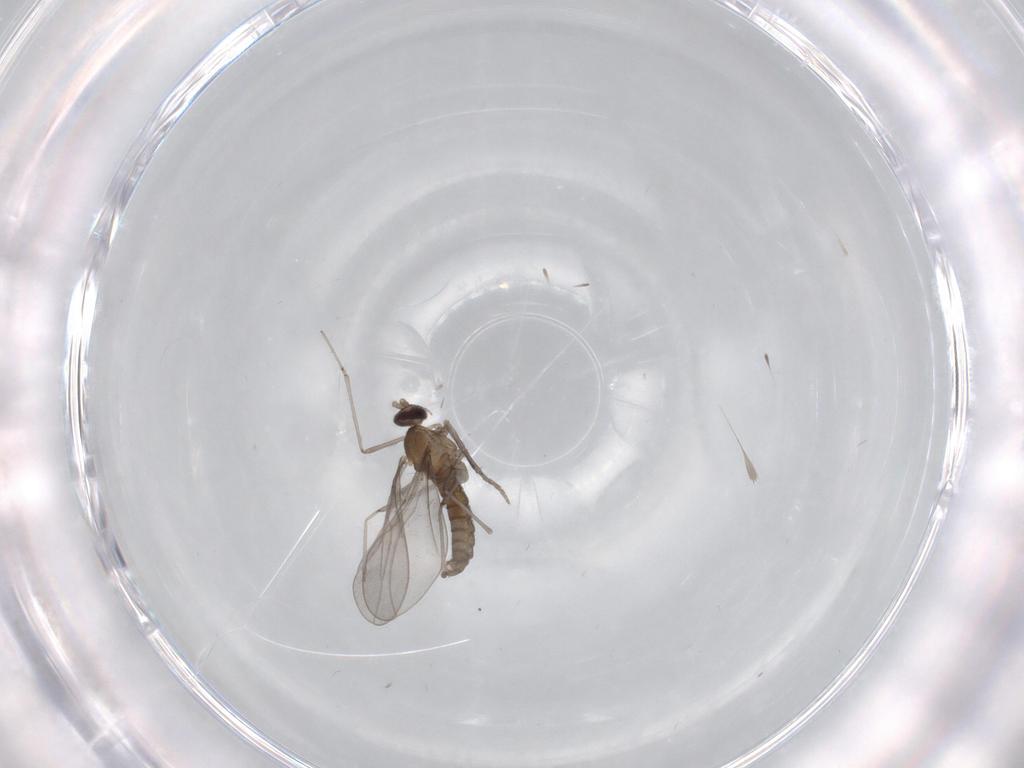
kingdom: Animalia
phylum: Arthropoda
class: Insecta
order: Diptera
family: Cecidomyiidae
